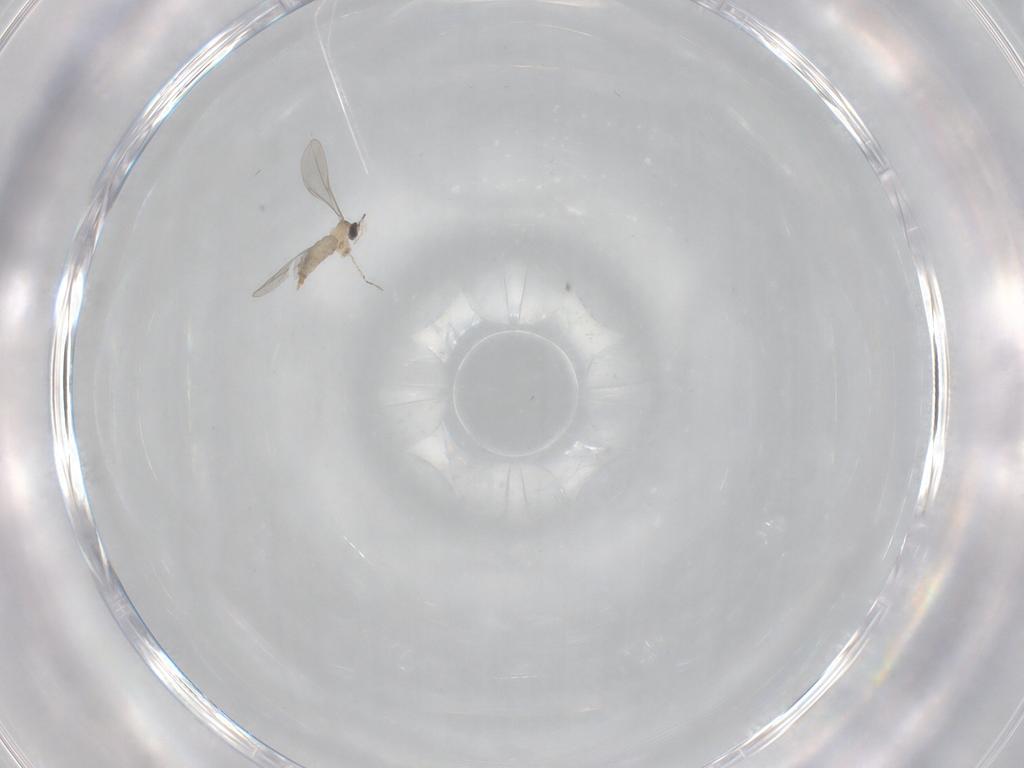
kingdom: Animalia
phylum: Arthropoda
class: Insecta
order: Diptera
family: Cecidomyiidae
